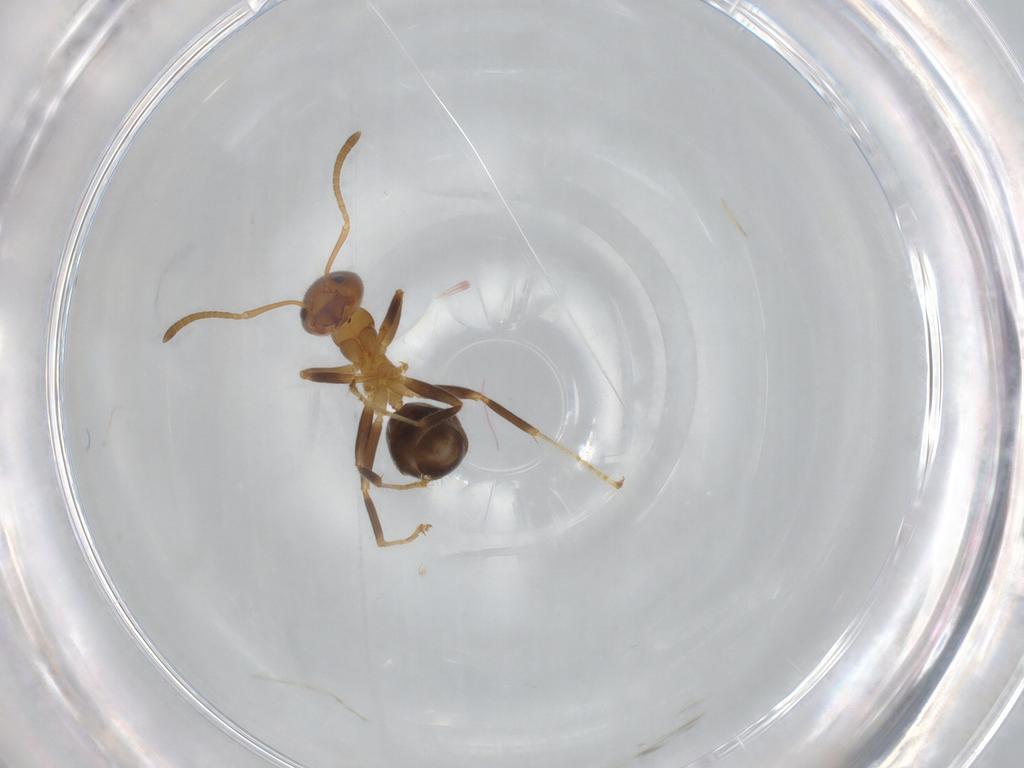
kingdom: Animalia
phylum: Arthropoda
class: Insecta
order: Hymenoptera
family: Formicidae
